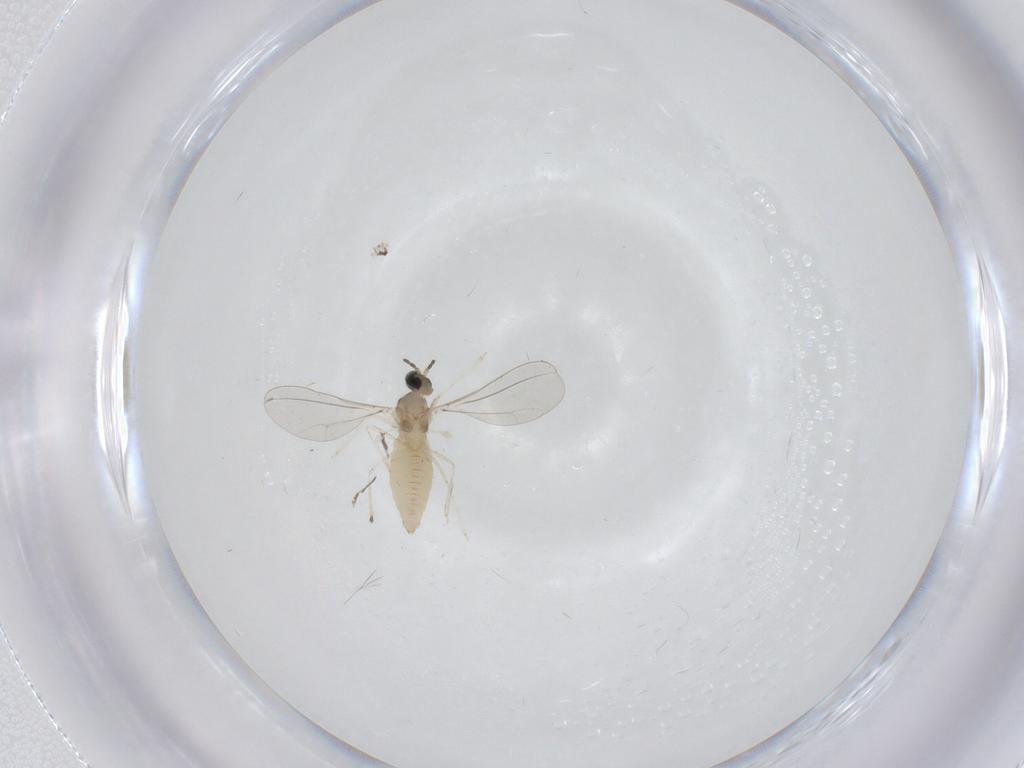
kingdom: Animalia
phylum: Arthropoda
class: Insecta
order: Diptera
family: Cecidomyiidae
